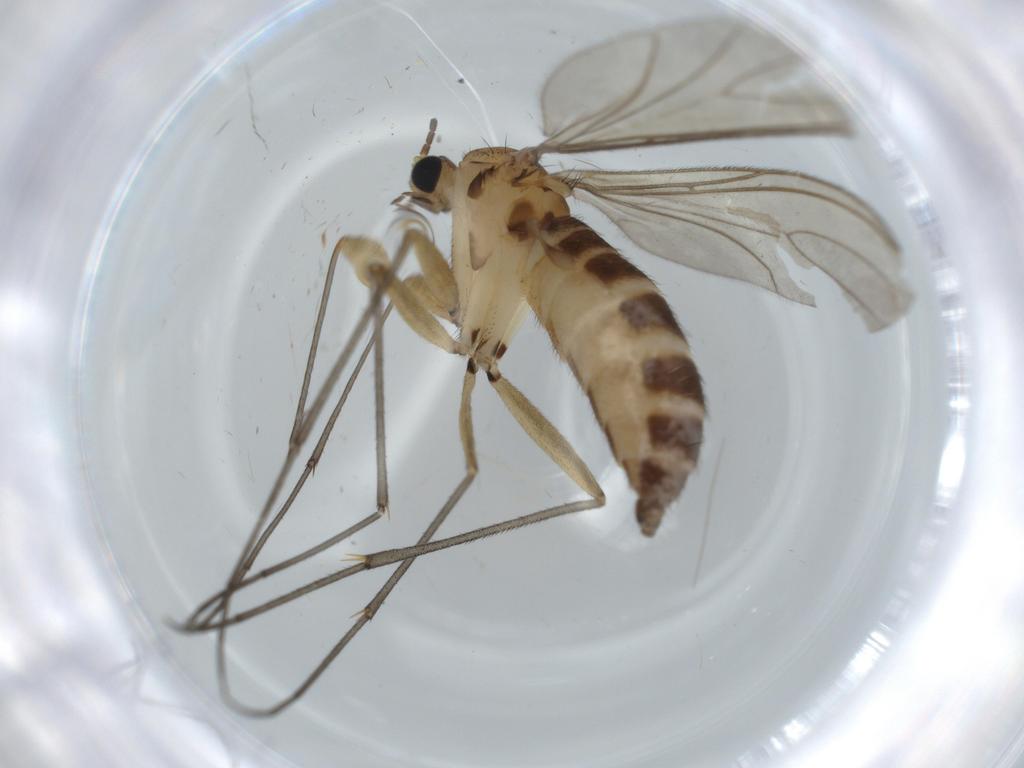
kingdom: Animalia
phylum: Arthropoda
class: Insecta
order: Diptera
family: Sciaridae
